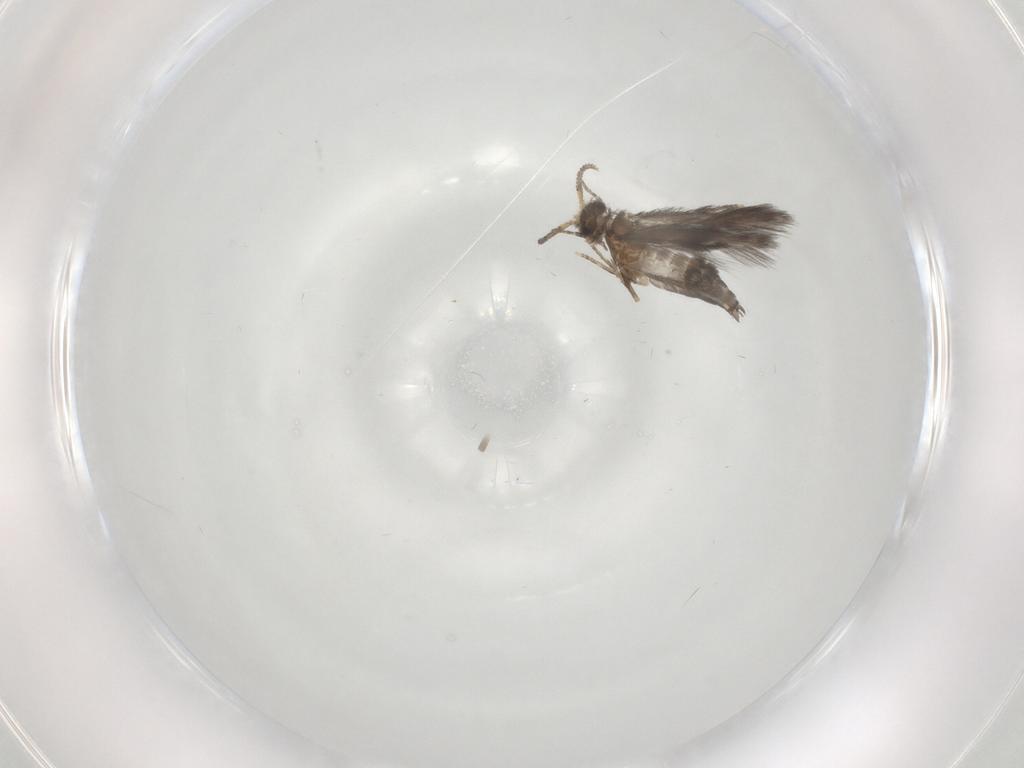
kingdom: Animalia
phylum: Arthropoda
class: Insecta
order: Trichoptera
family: Hydroptilidae
